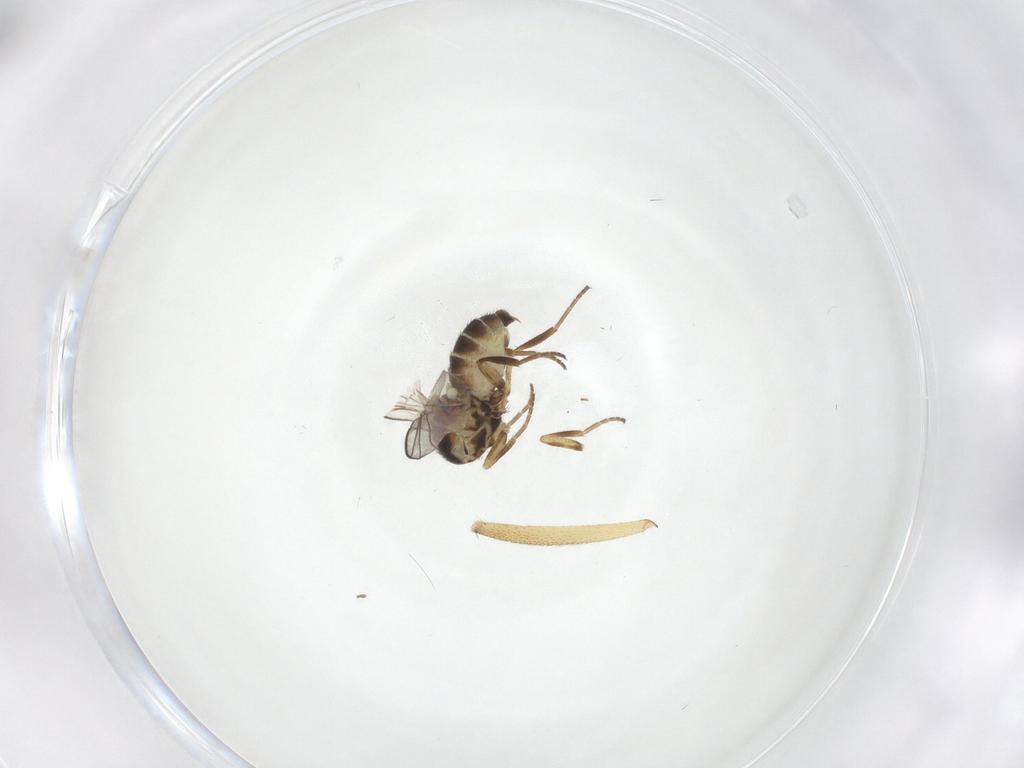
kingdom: Animalia
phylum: Arthropoda
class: Insecta
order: Diptera
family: Agromyzidae
